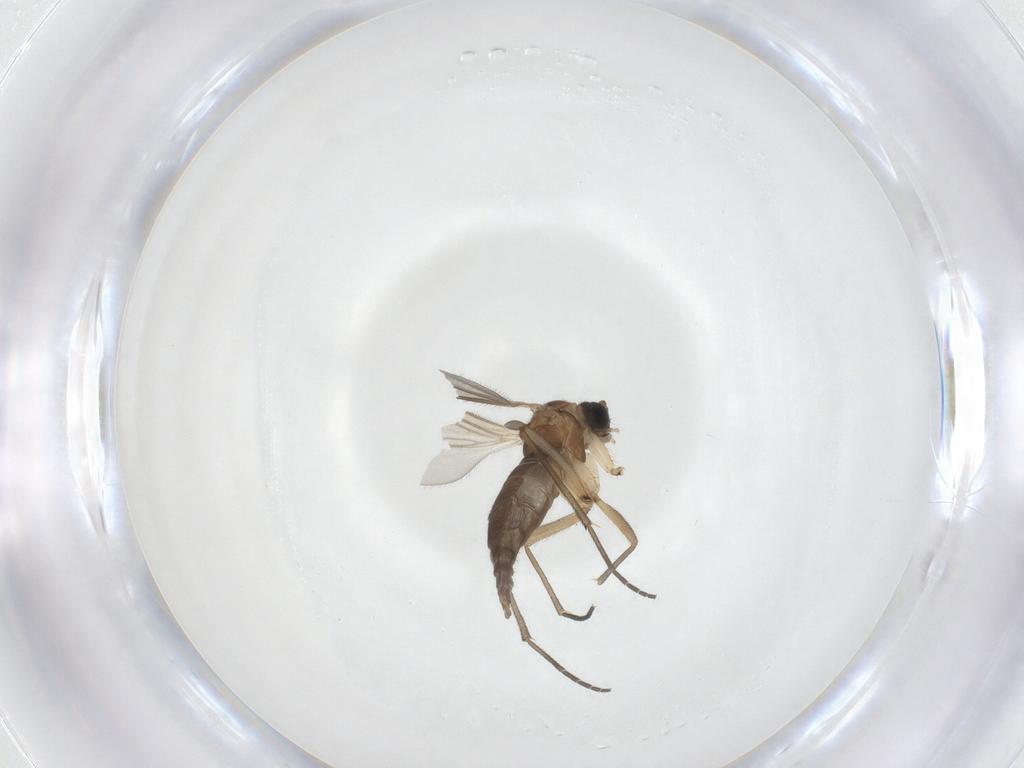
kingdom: Animalia
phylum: Arthropoda
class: Insecta
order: Diptera
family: Sciaridae
